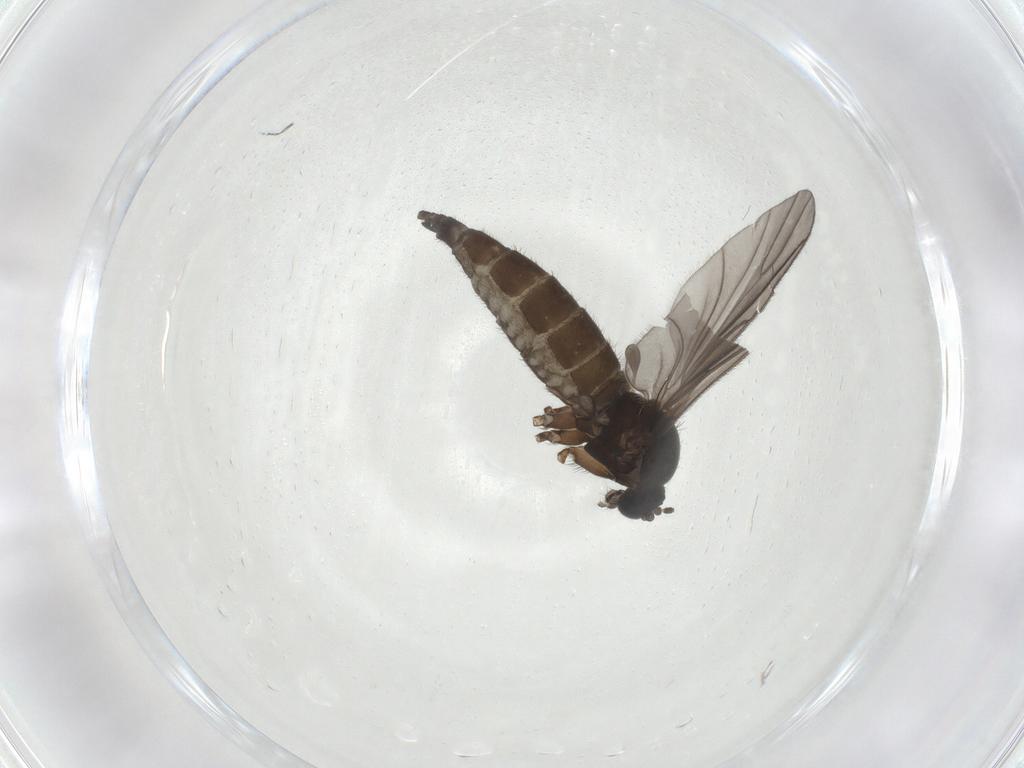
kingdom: Animalia
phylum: Arthropoda
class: Insecta
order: Diptera
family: Sciaridae
